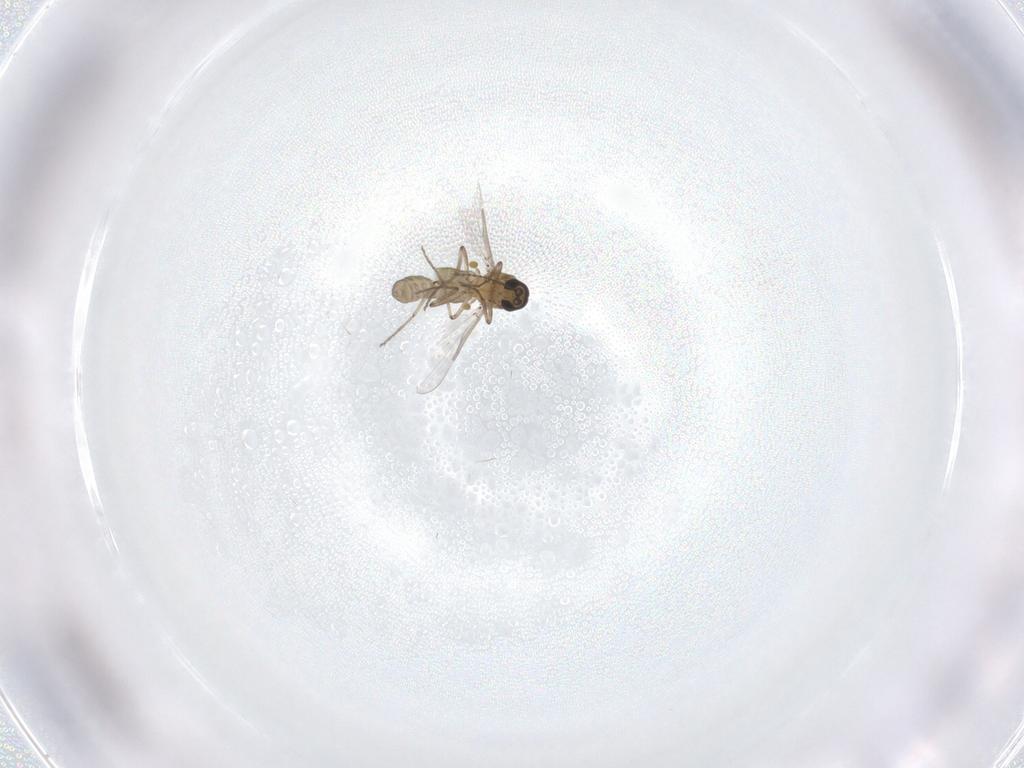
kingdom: Animalia
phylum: Arthropoda
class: Insecta
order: Diptera
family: Ceratopogonidae
